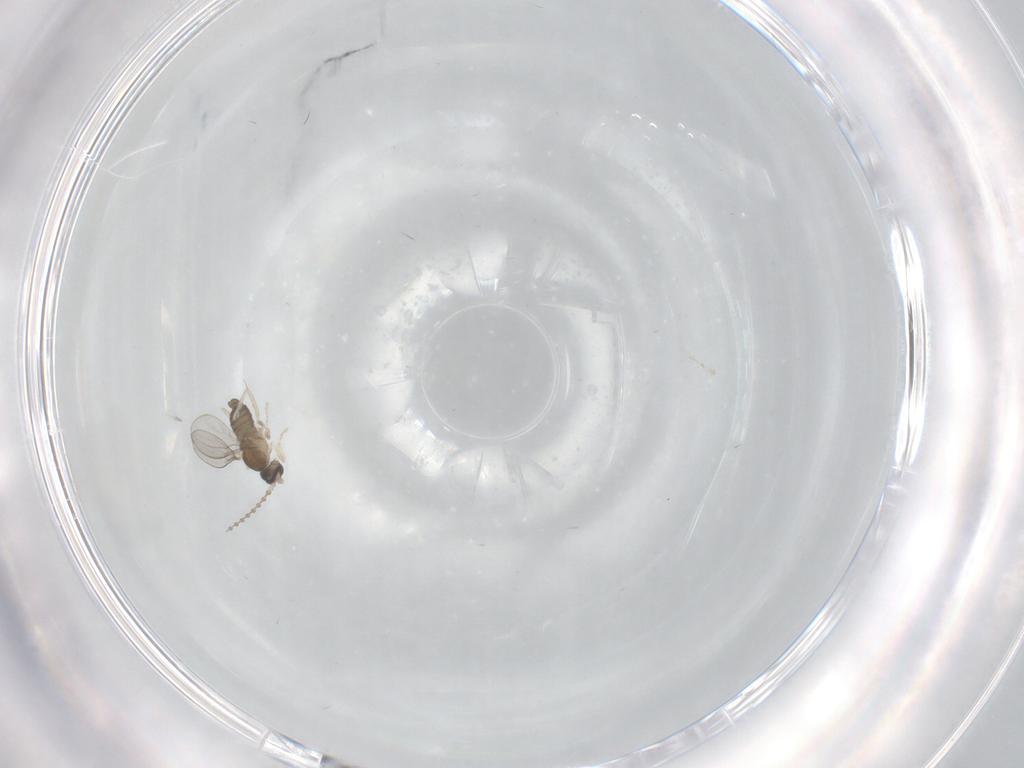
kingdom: Animalia
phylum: Arthropoda
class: Insecta
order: Diptera
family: Cecidomyiidae
